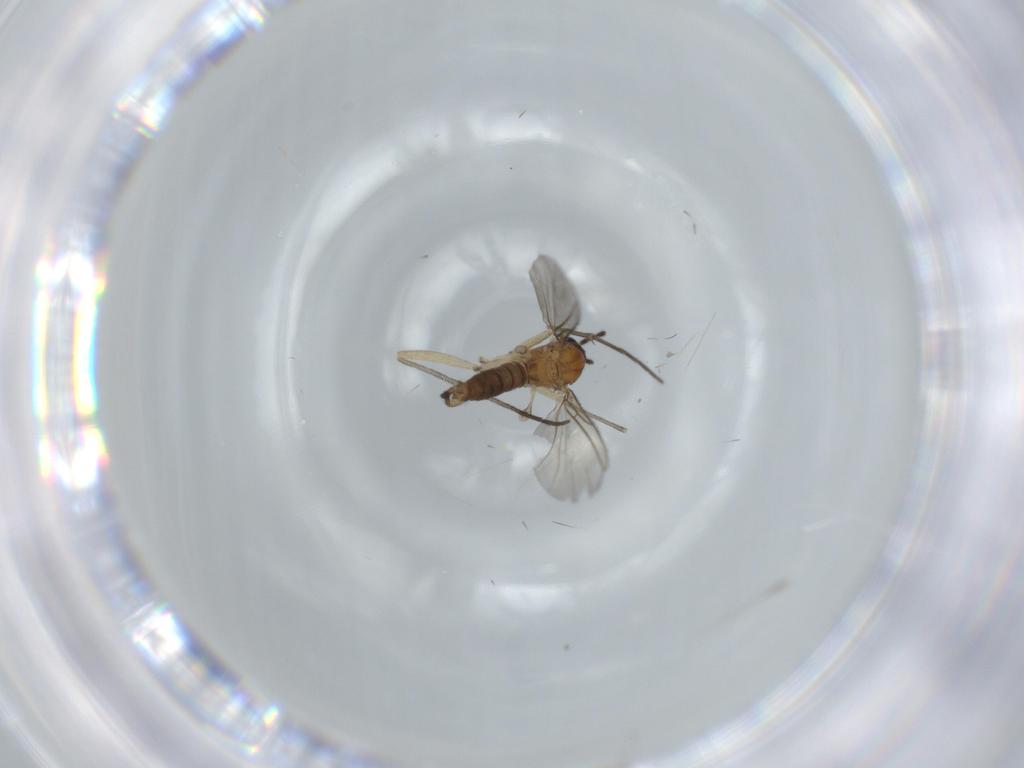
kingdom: Animalia
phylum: Arthropoda
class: Insecta
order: Diptera
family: Sciaridae
